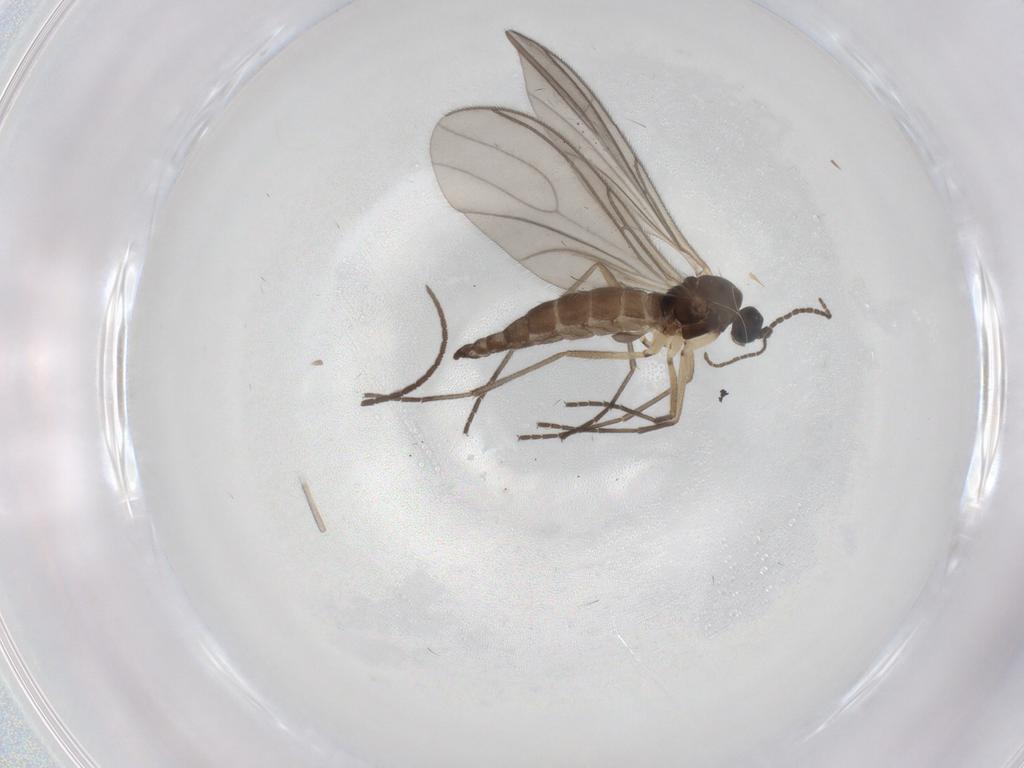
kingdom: Animalia
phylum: Arthropoda
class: Insecta
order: Diptera
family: Sciaridae
